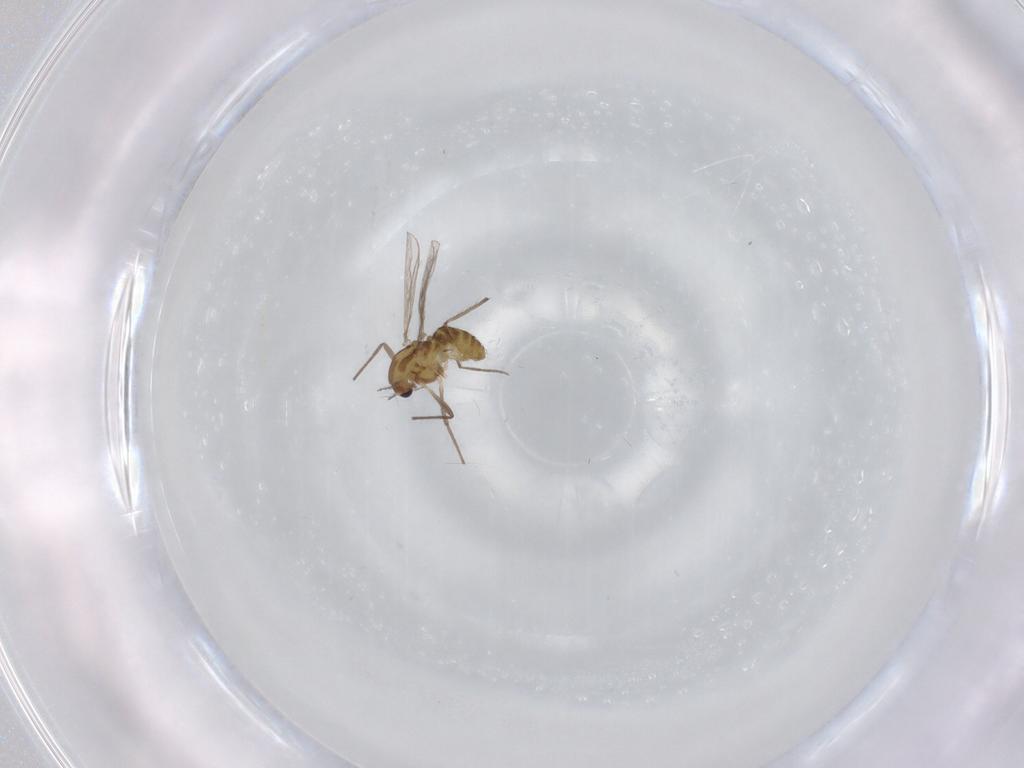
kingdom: Animalia
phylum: Arthropoda
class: Insecta
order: Diptera
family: Chironomidae
